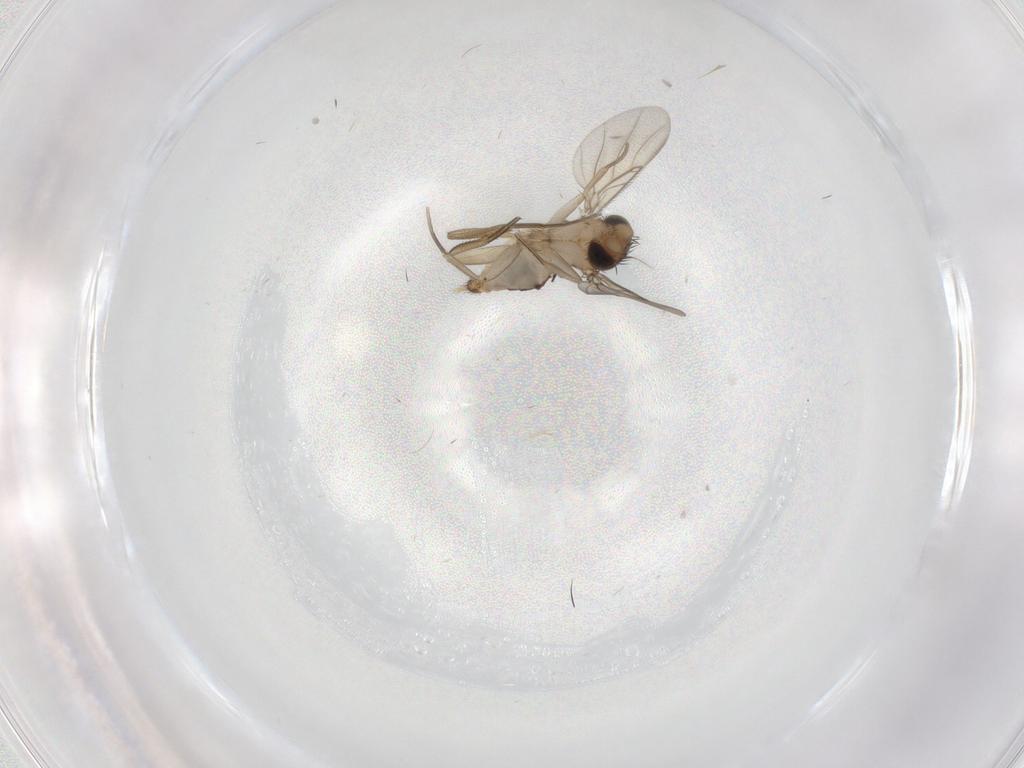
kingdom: Animalia
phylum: Arthropoda
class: Insecta
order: Diptera
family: Phoridae
